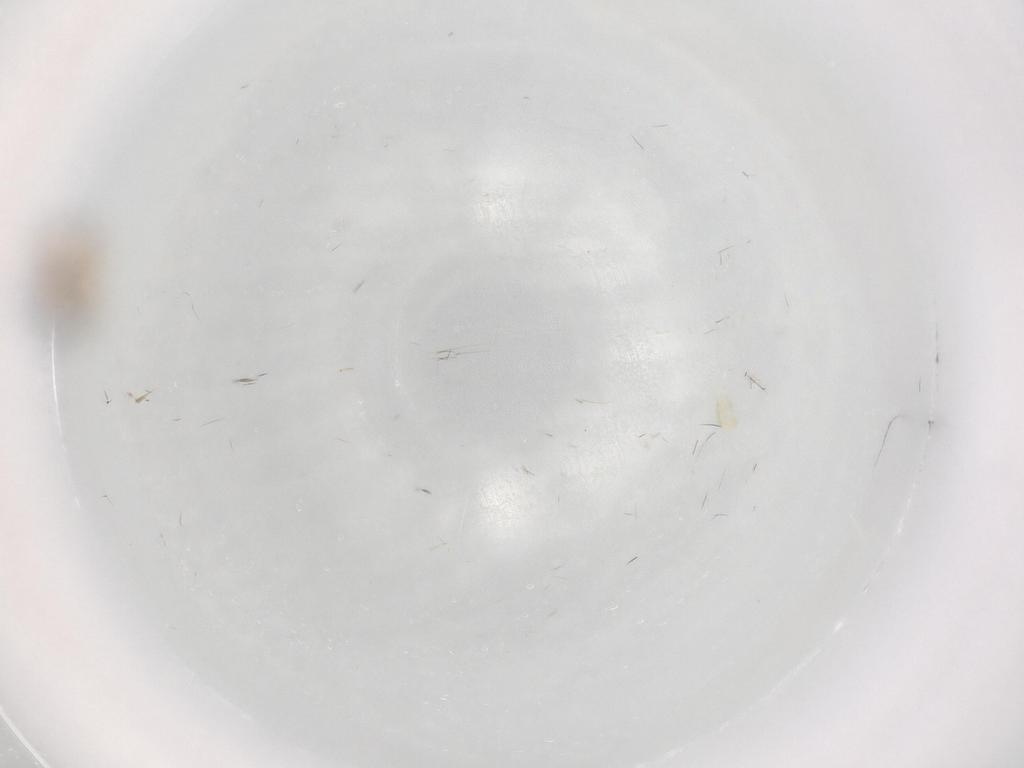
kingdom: Animalia
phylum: Arthropoda
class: Insecta
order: Hymenoptera
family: Scelionidae
